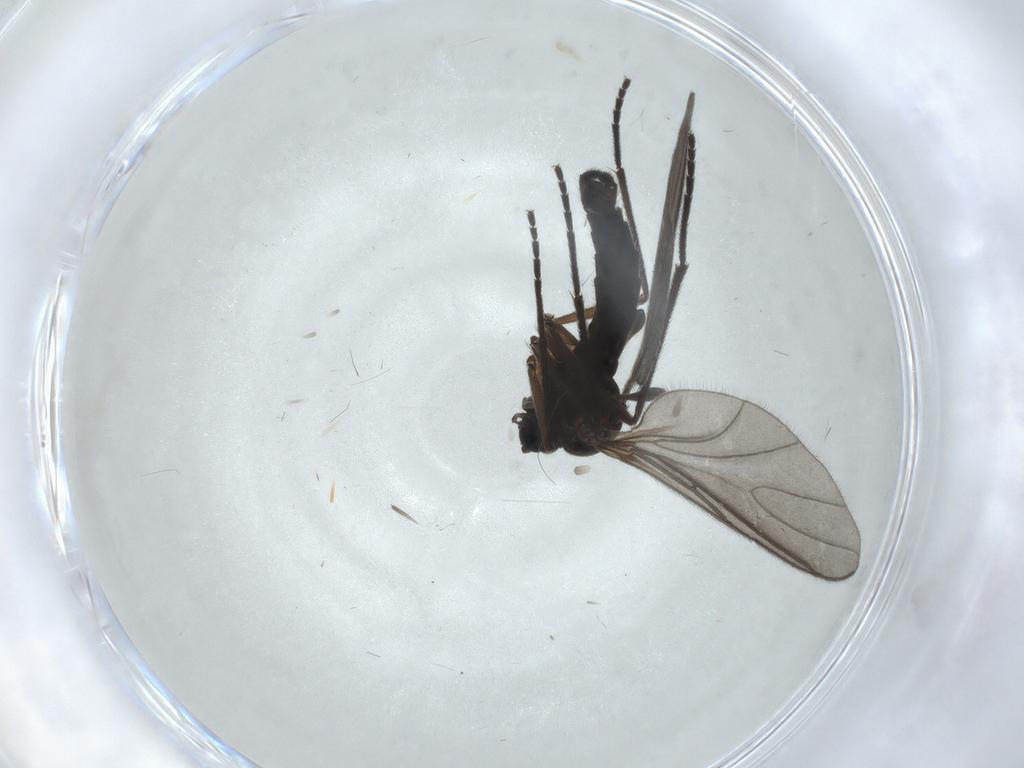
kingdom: Animalia
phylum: Arthropoda
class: Insecta
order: Diptera
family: Sciaridae
